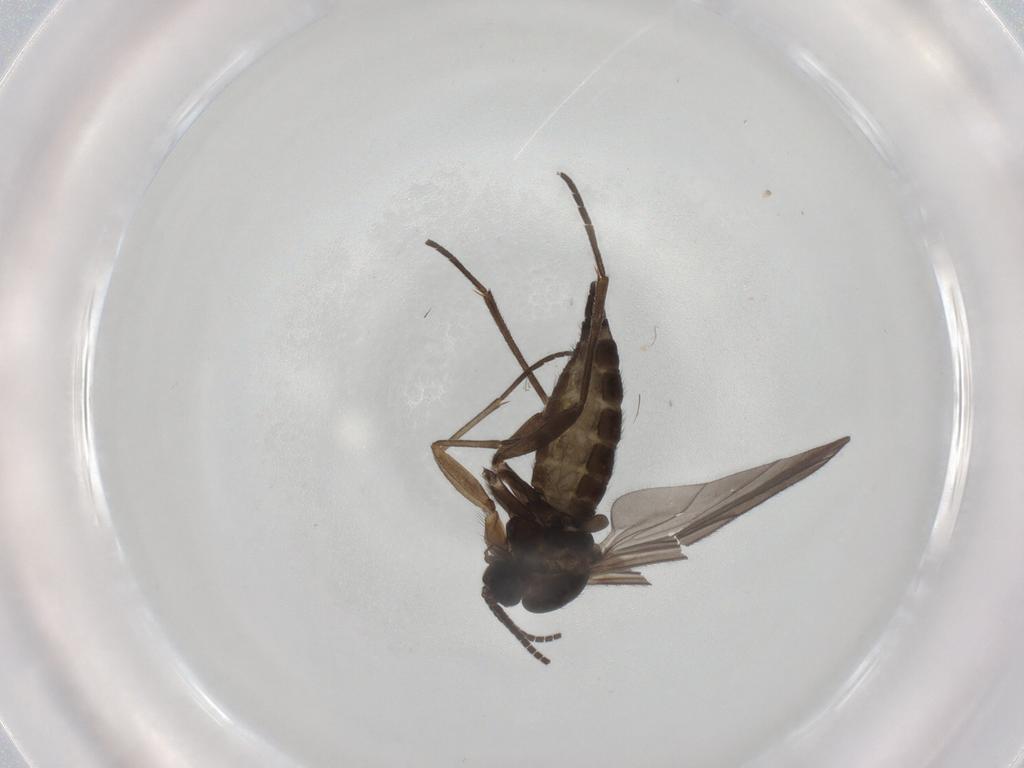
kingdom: Animalia
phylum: Arthropoda
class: Insecta
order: Diptera
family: Sciaridae
